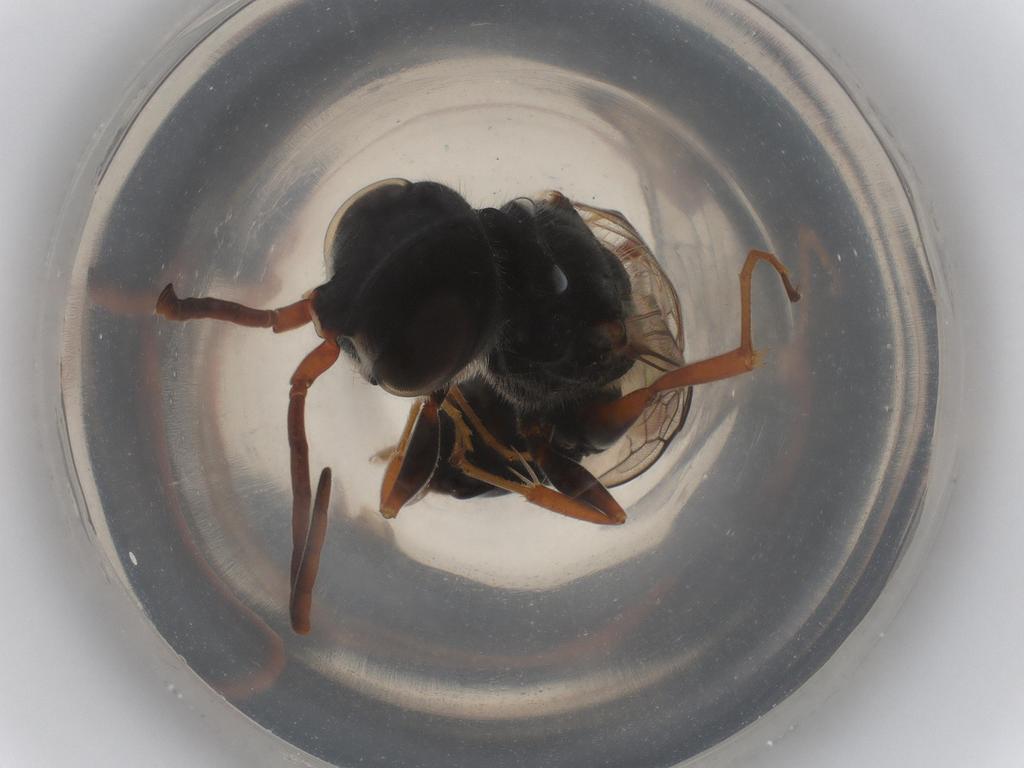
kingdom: Animalia
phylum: Arthropoda
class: Insecta
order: Hymenoptera
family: Ampulicidae
